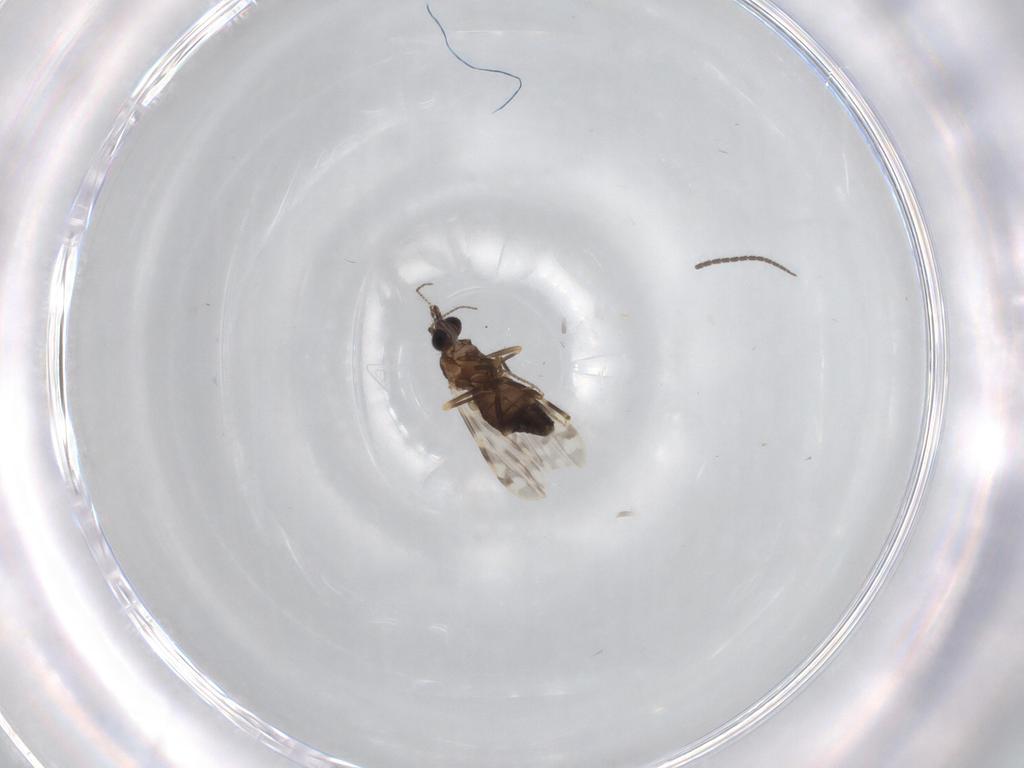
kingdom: Animalia
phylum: Arthropoda
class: Insecta
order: Diptera
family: Ceratopogonidae
